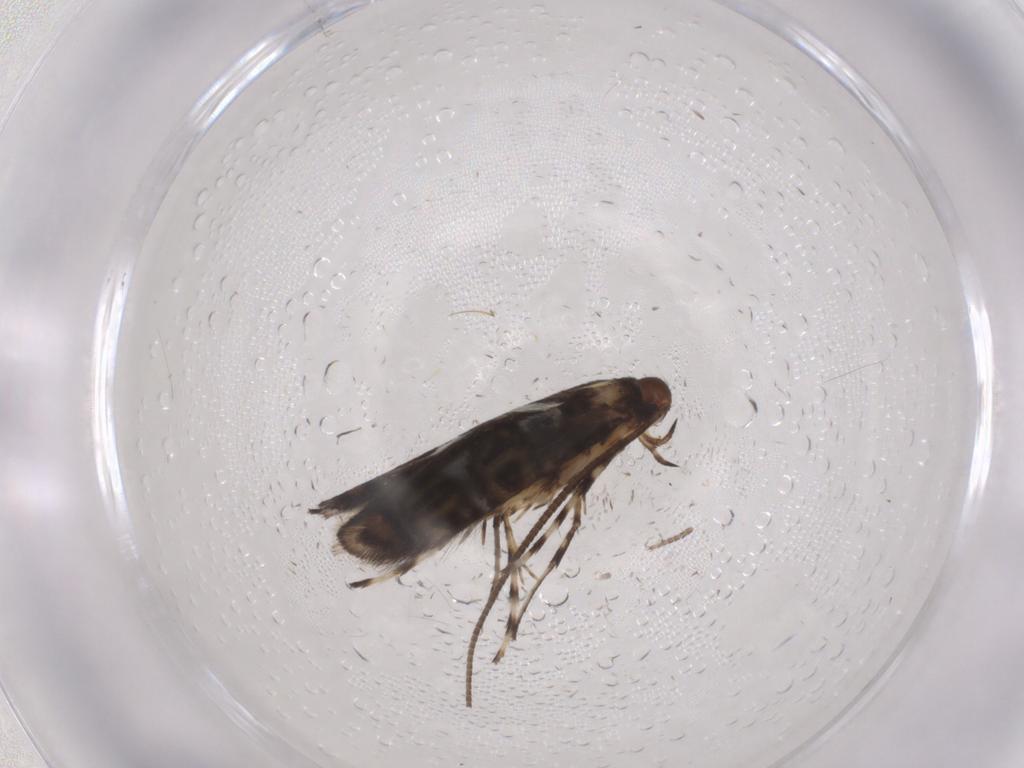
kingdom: Animalia
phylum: Arthropoda
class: Insecta
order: Lepidoptera
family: Gracillariidae
